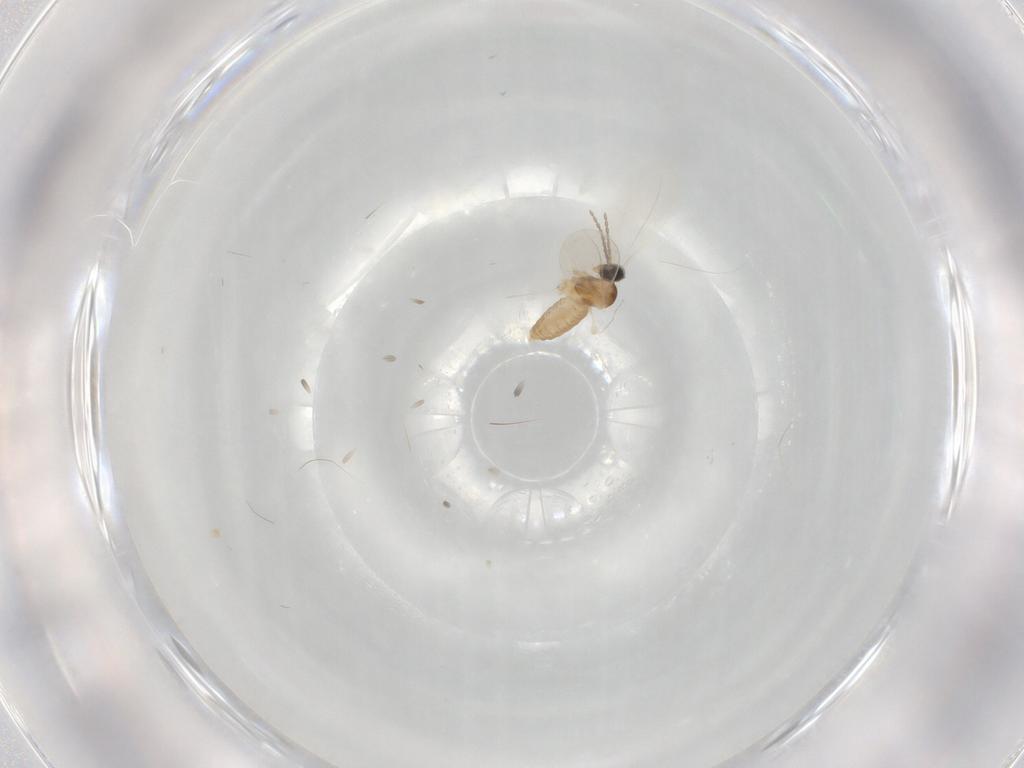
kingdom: Animalia
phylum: Arthropoda
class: Insecta
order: Diptera
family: Cecidomyiidae
